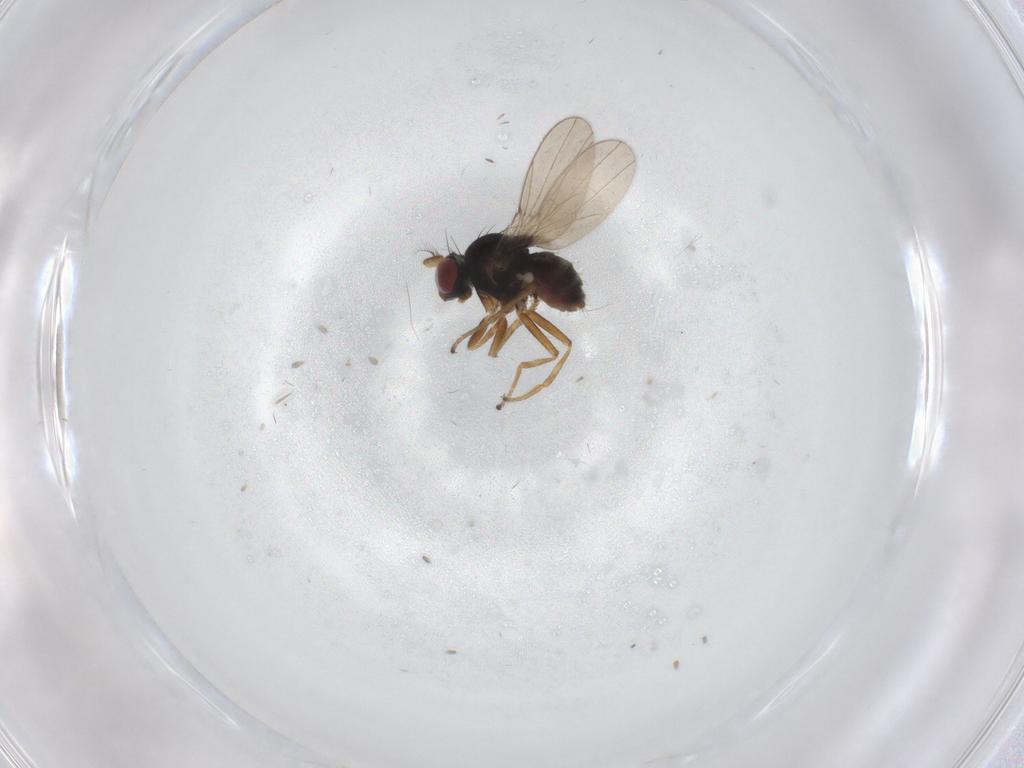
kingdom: Animalia
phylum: Arthropoda
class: Insecta
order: Diptera
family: Ephydridae
